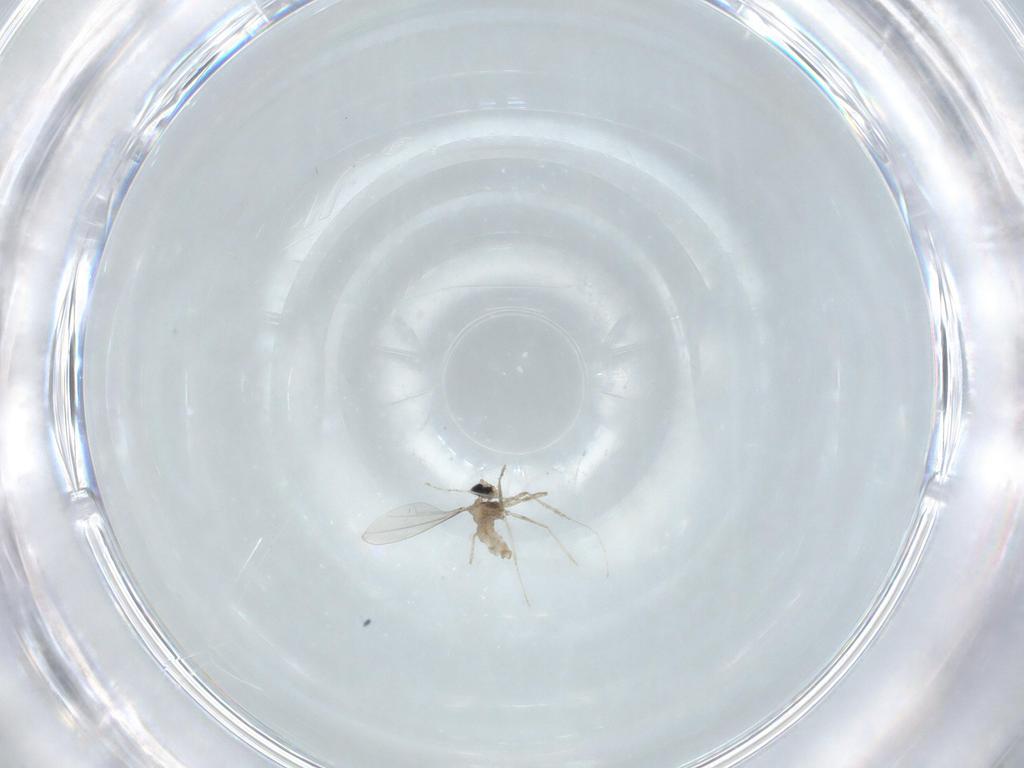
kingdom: Animalia
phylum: Arthropoda
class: Insecta
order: Diptera
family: Cecidomyiidae
